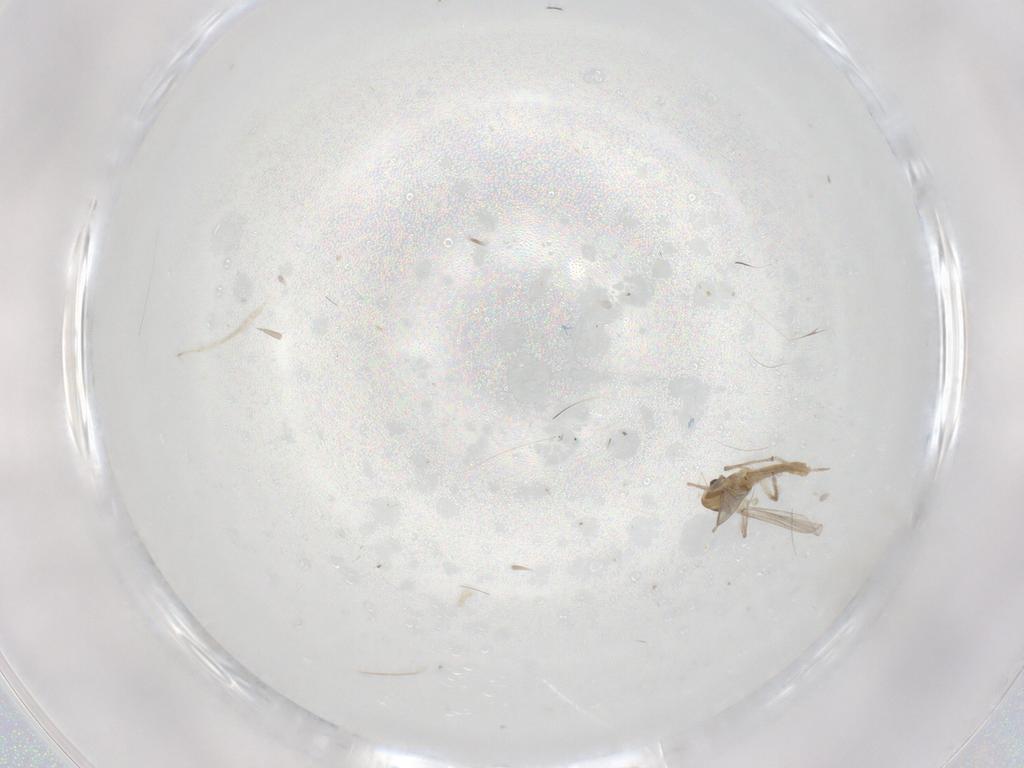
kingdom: Animalia
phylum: Arthropoda
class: Insecta
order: Diptera
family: Chironomidae
